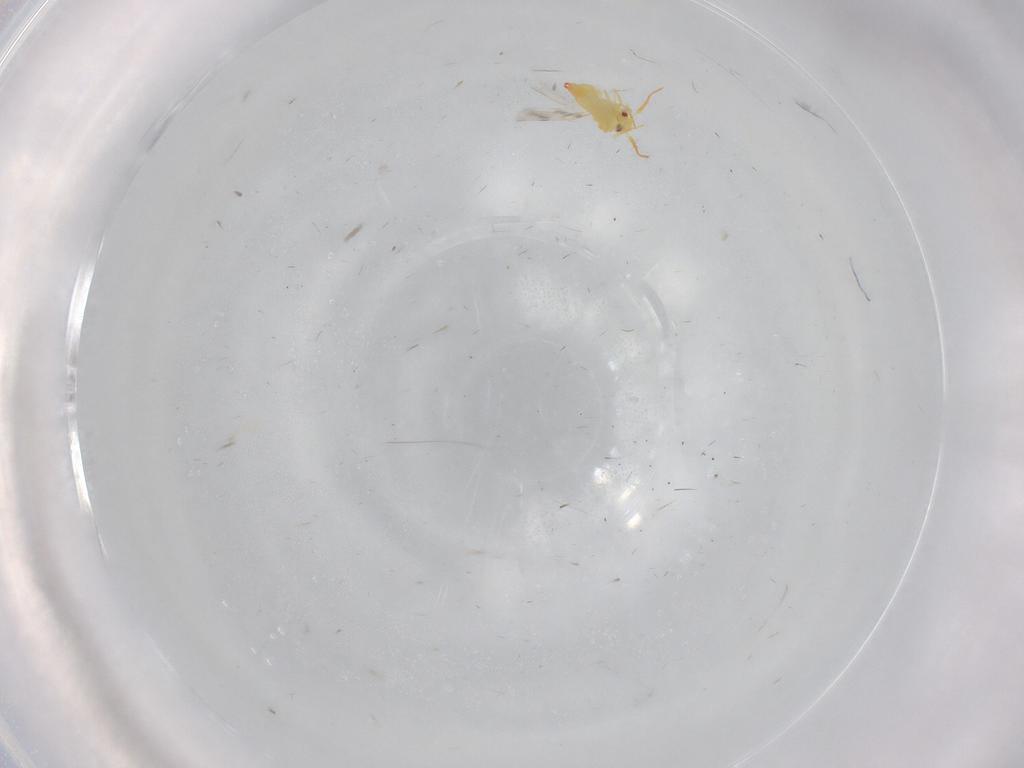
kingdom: Animalia
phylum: Arthropoda
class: Insecta
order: Hemiptera
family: Aleyrodidae
